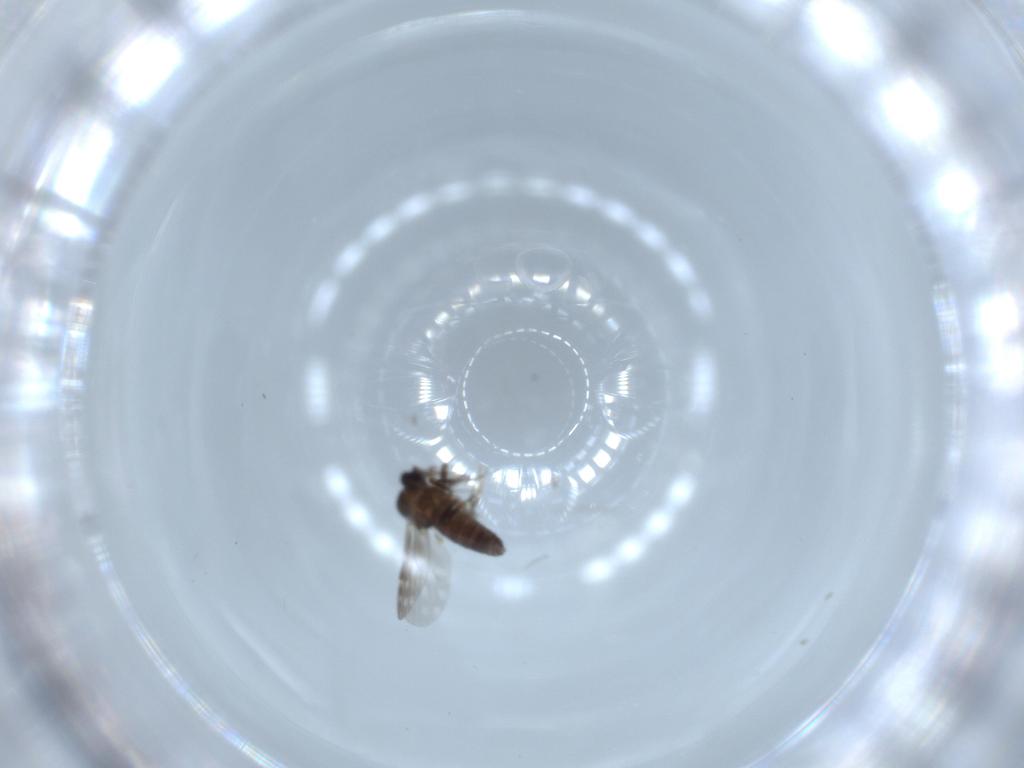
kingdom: Animalia
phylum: Arthropoda
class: Insecta
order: Diptera
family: Ceratopogonidae
